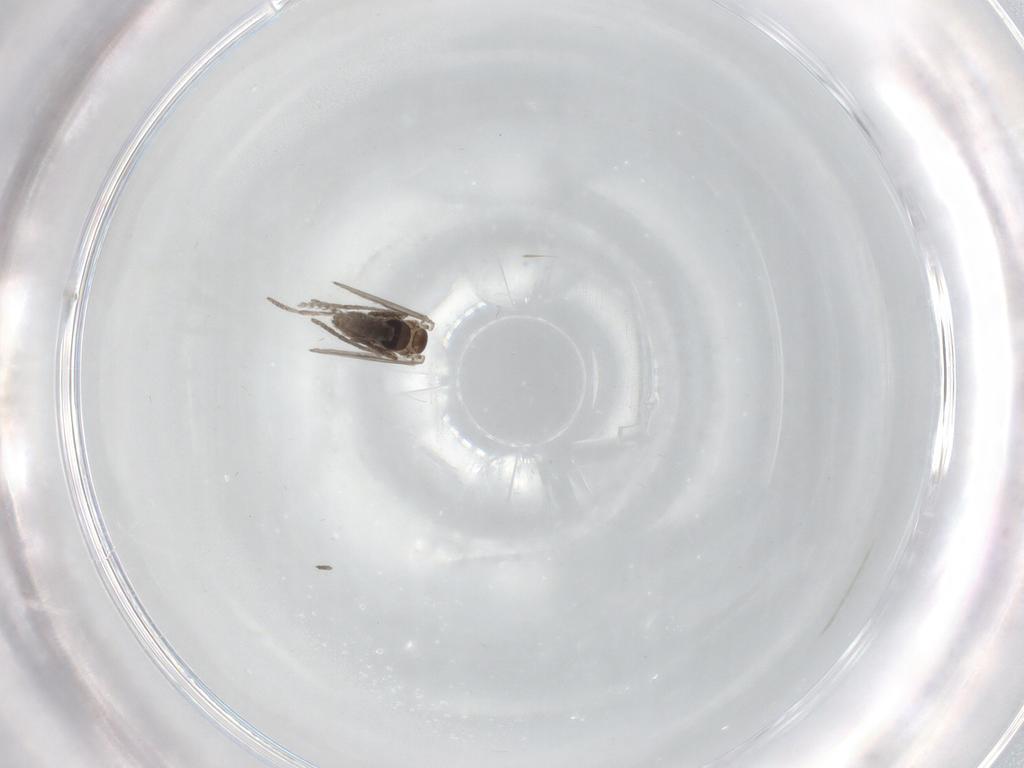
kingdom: Animalia
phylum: Arthropoda
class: Insecta
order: Diptera
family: Psychodidae
